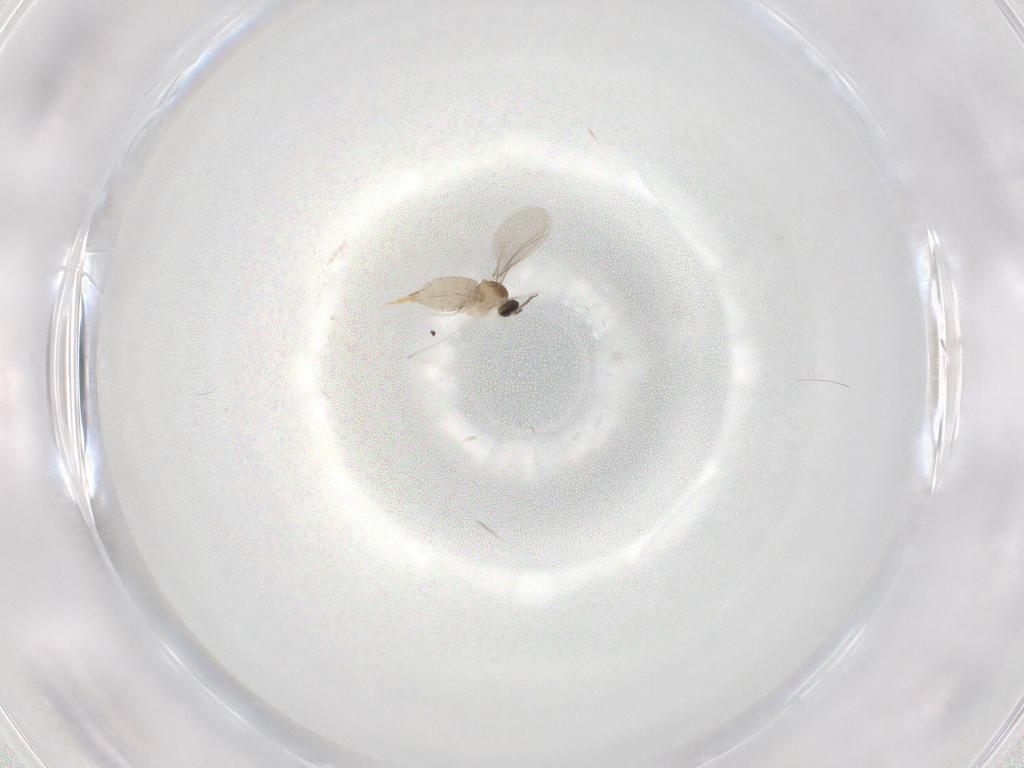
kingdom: Animalia
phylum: Arthropoda
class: Insecta
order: Diptera
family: Cecidomyiidae
